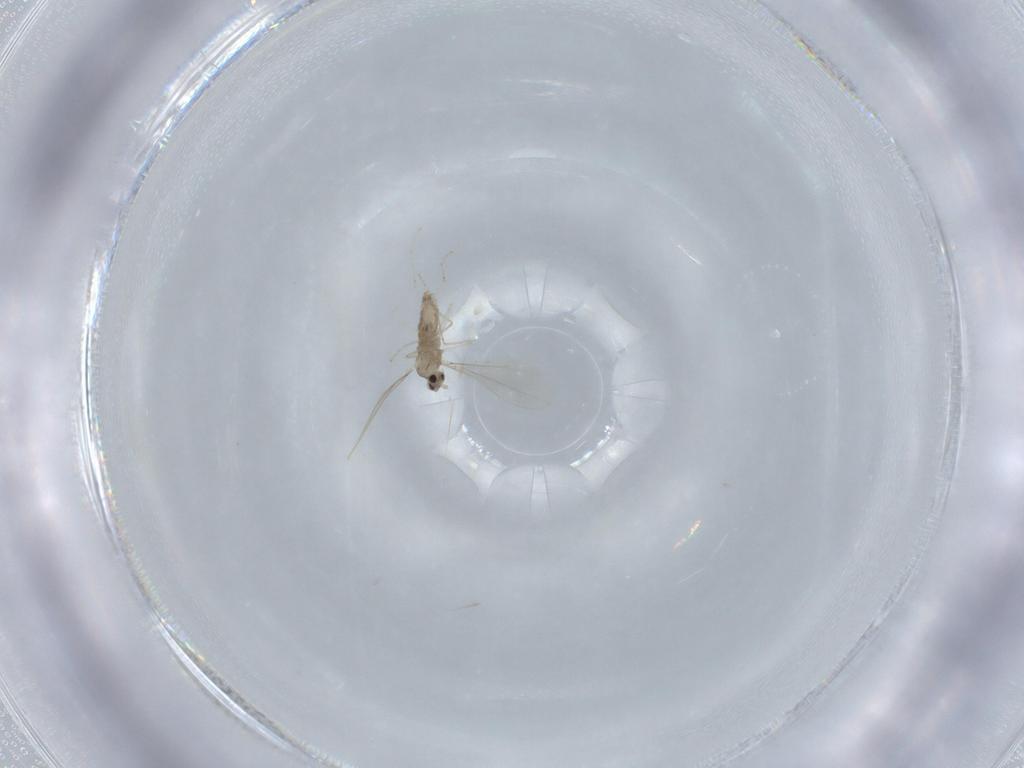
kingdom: Animalia
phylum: Arthropoda
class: Insecta
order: Diptera
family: Cecidomyiidae
